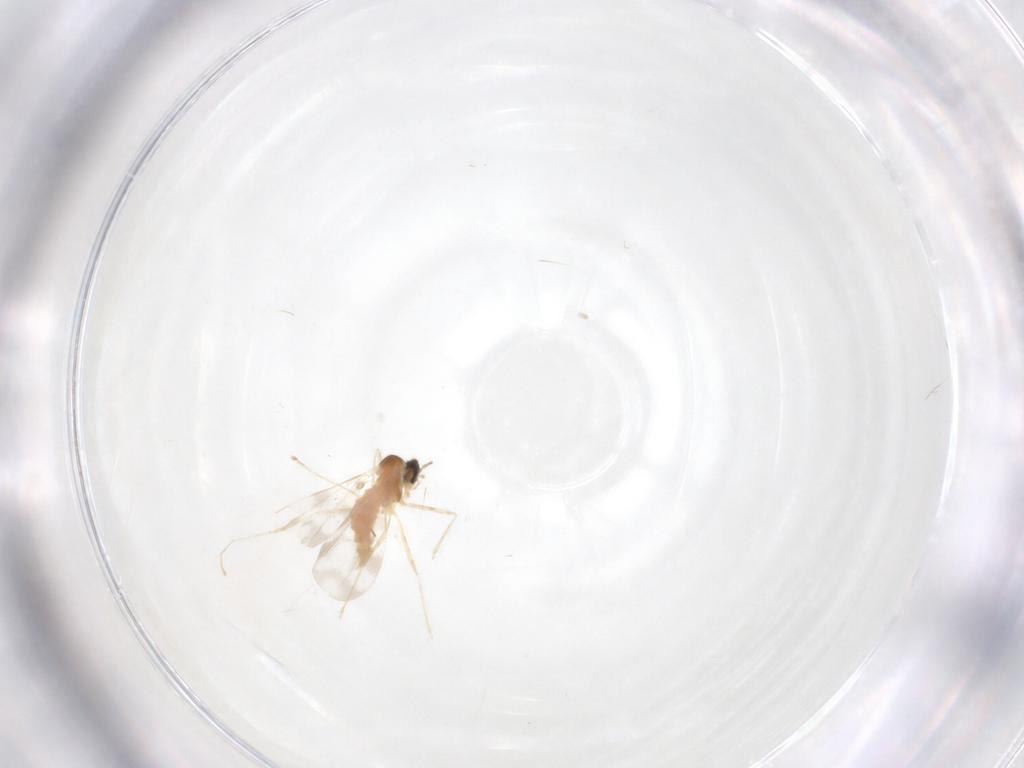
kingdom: Animalia
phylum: Arthropoda
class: Insecta
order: Diptera
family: Cecidomyiidae
